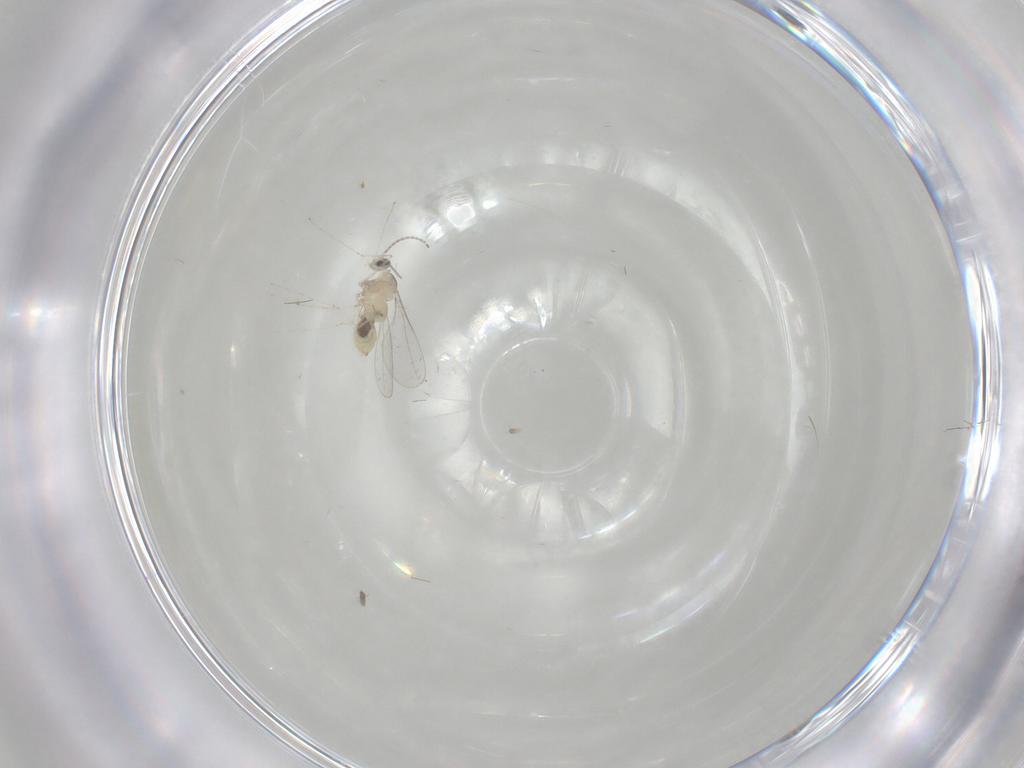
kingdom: Animalia
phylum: Arthropoda
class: Insecta
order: Diptera
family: Cecidomyiidae
